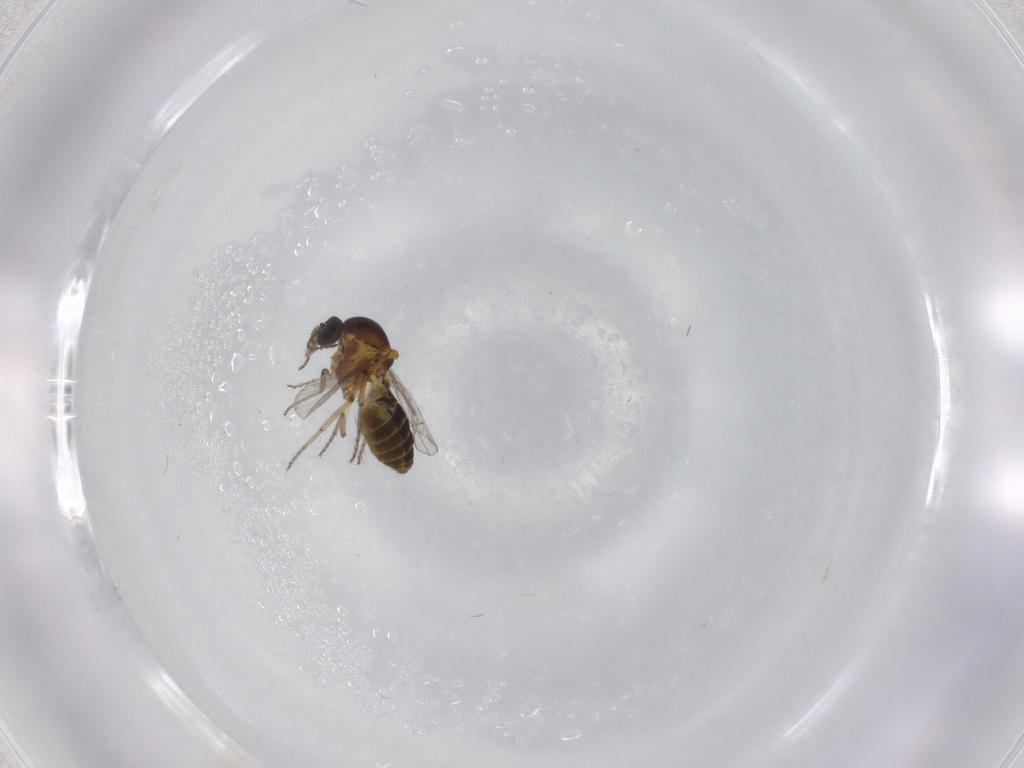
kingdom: Animalia
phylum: Arthropoda
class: Insecta
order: Diptera
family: Ceratopogonidae
